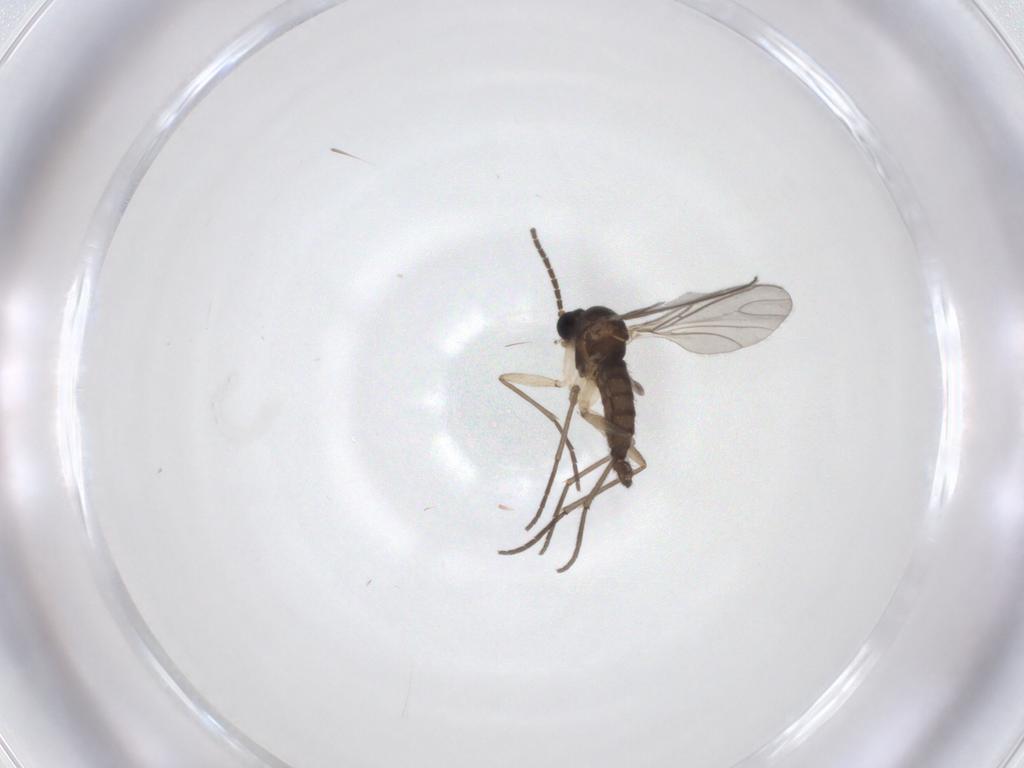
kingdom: Animalia
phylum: Arthropoda
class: Insecta
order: Diptera
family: Sciaridae
